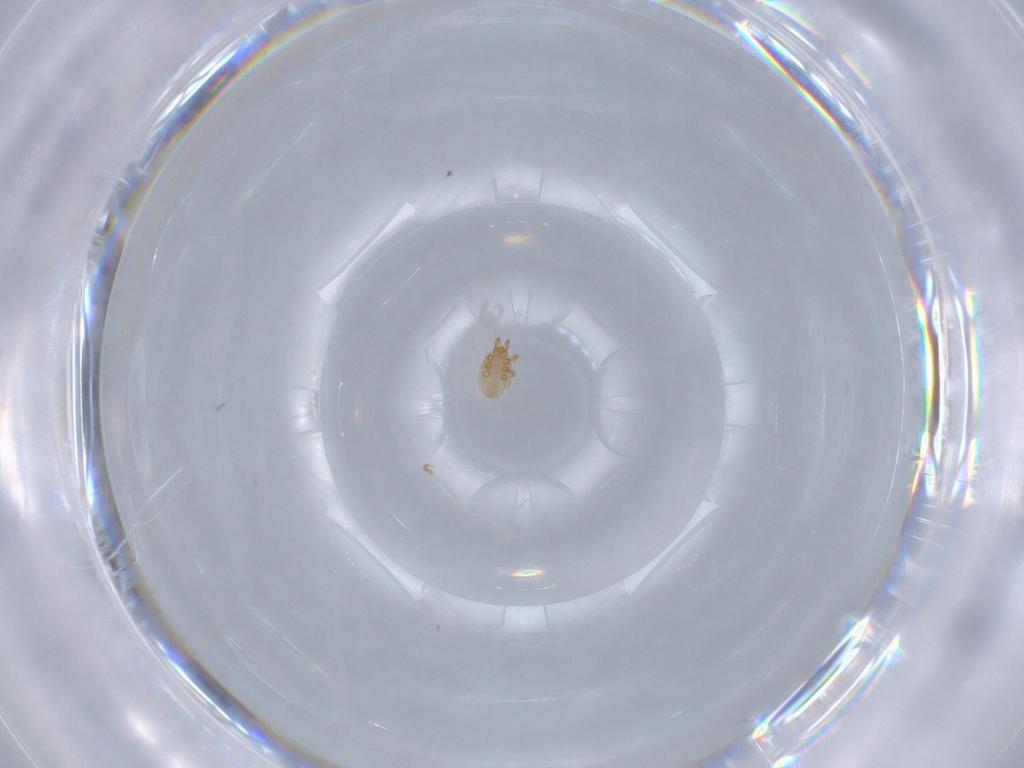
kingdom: Animalia
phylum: Arthropoda
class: Arachnida
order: Mesostigmata
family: Dinychidae
